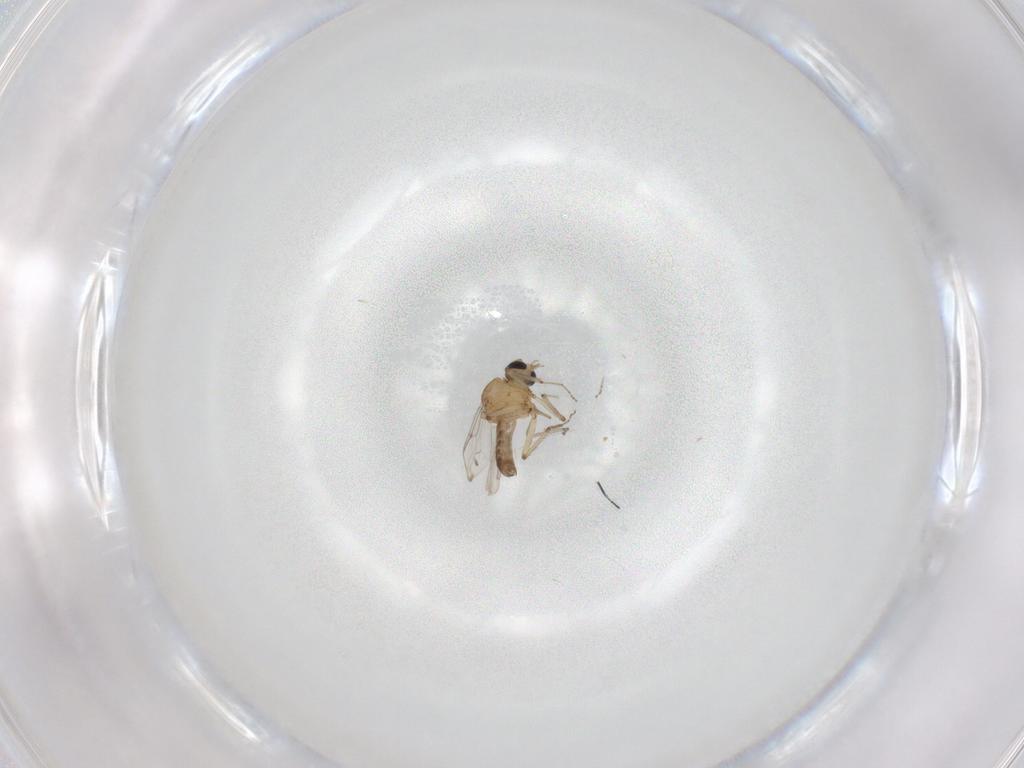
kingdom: Animalia
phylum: Arthropoda
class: Insecta
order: Diptera
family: Ceratopogonidae
